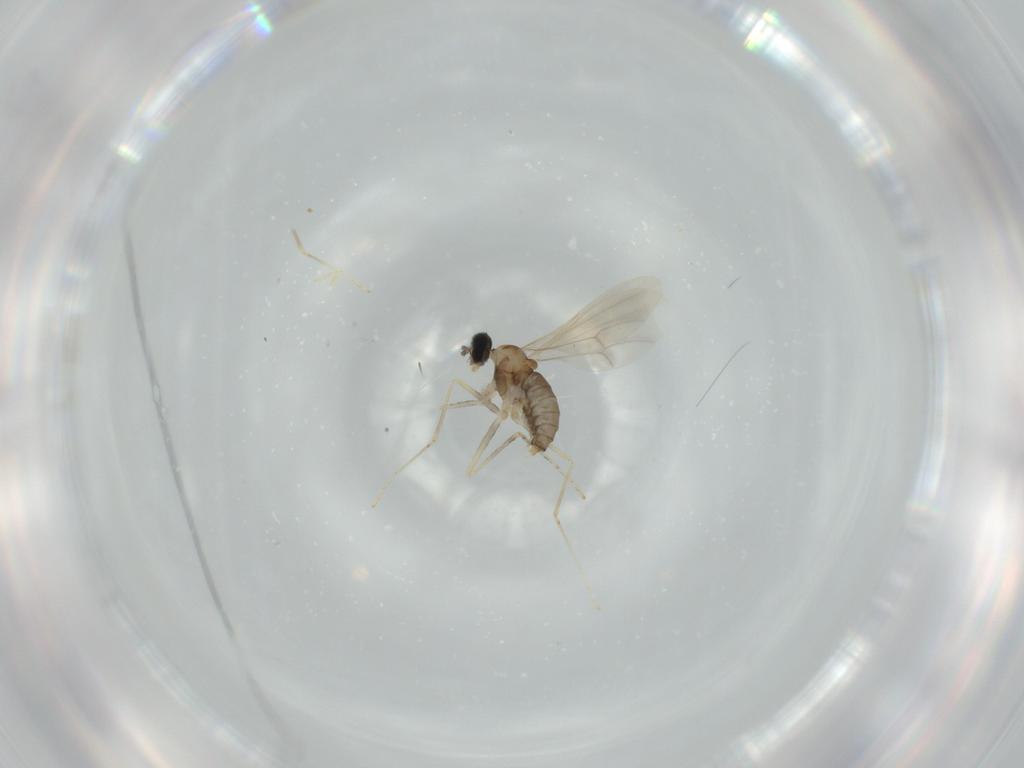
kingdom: Animalia
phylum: Arthropoda
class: Insecta
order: Diptera
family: Cecidomyiidae
